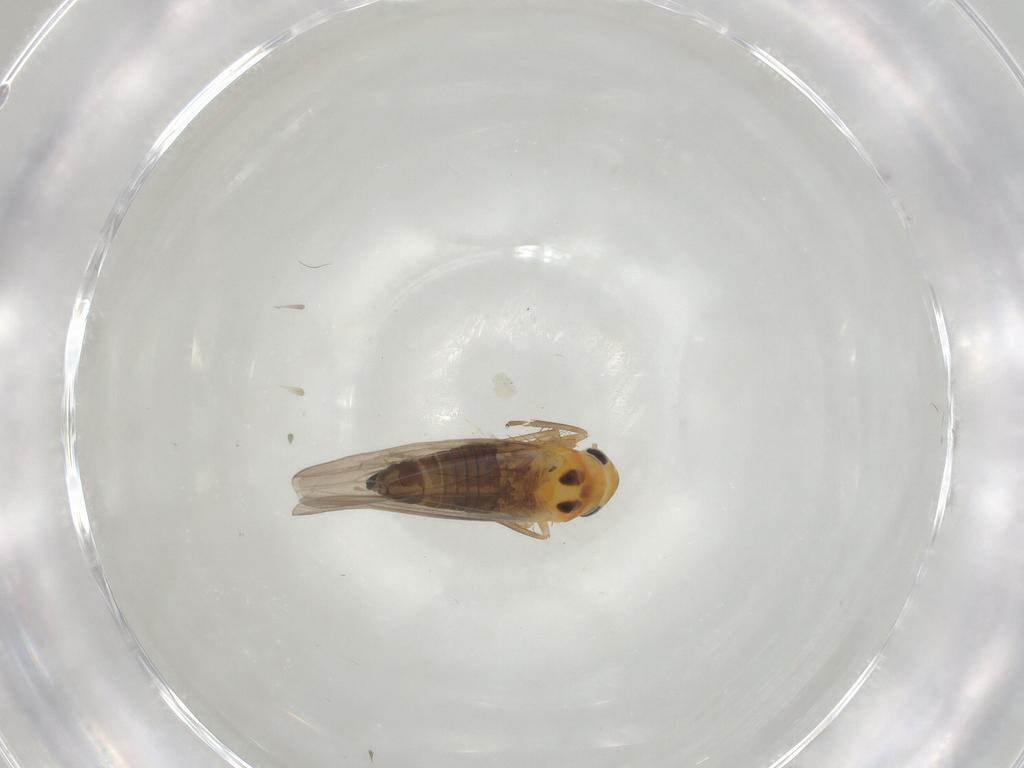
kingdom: Animalia
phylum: Arthropoda
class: Insecta
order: Hemiptera
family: Cicadellidae
